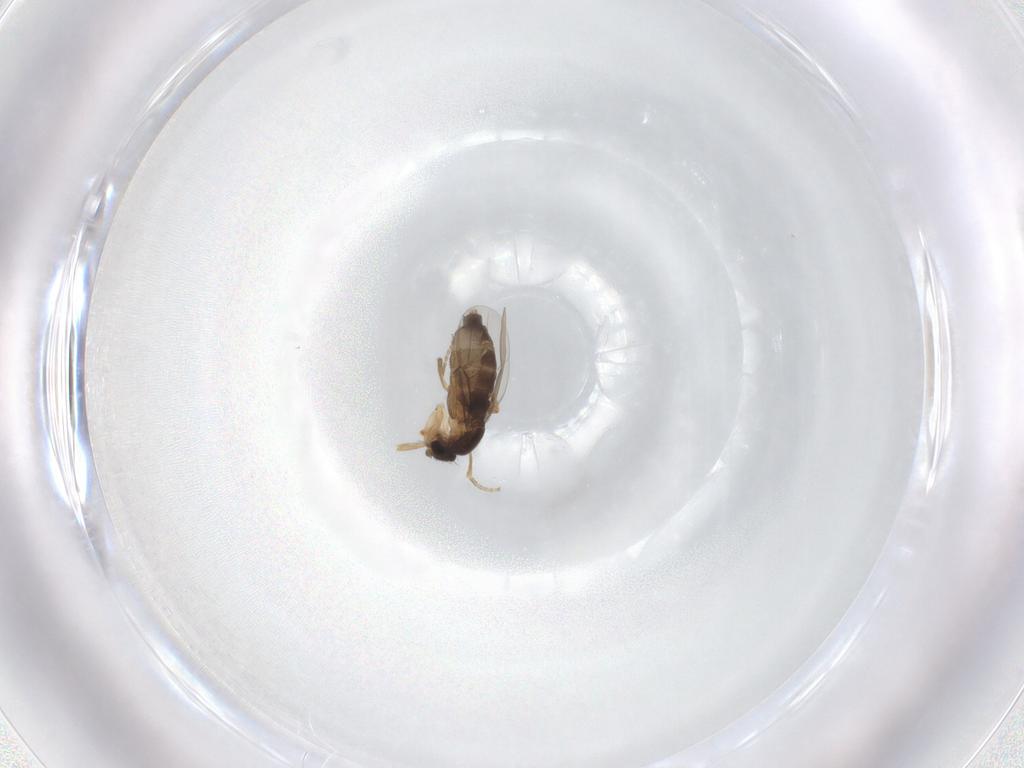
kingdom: Animalia
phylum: Arthropoda
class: Insecta
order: Diptera
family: Phoridae
